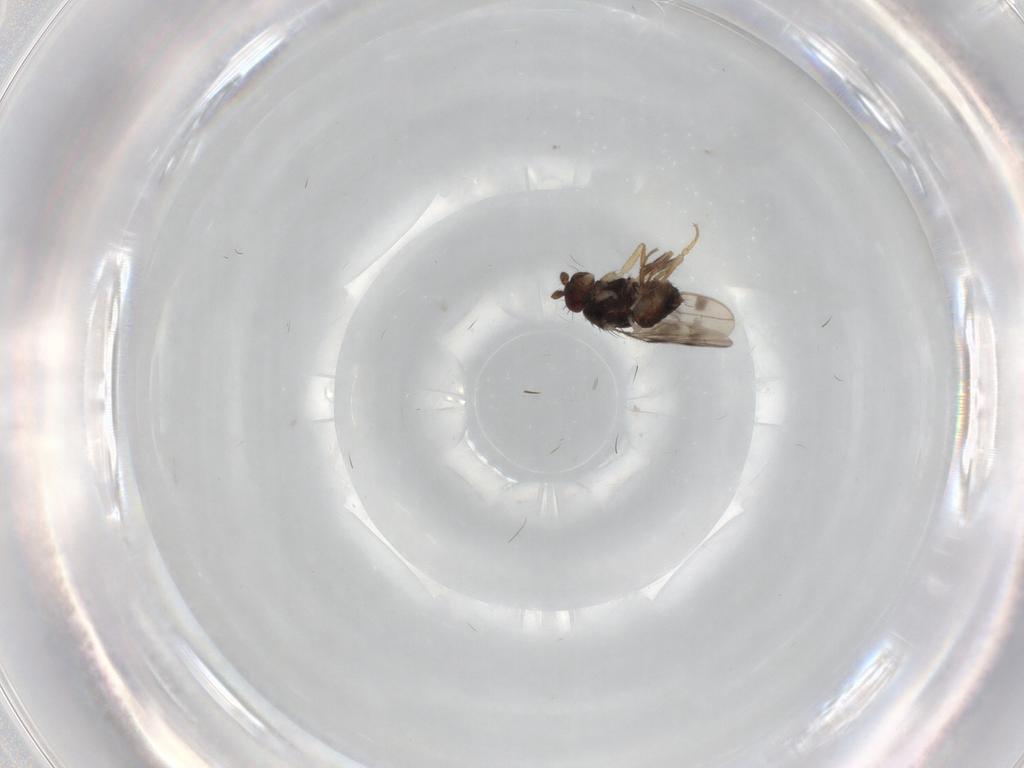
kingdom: Animalia
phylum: Arthropoda
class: Insecta
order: Diptera
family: Sphaeroceridae
